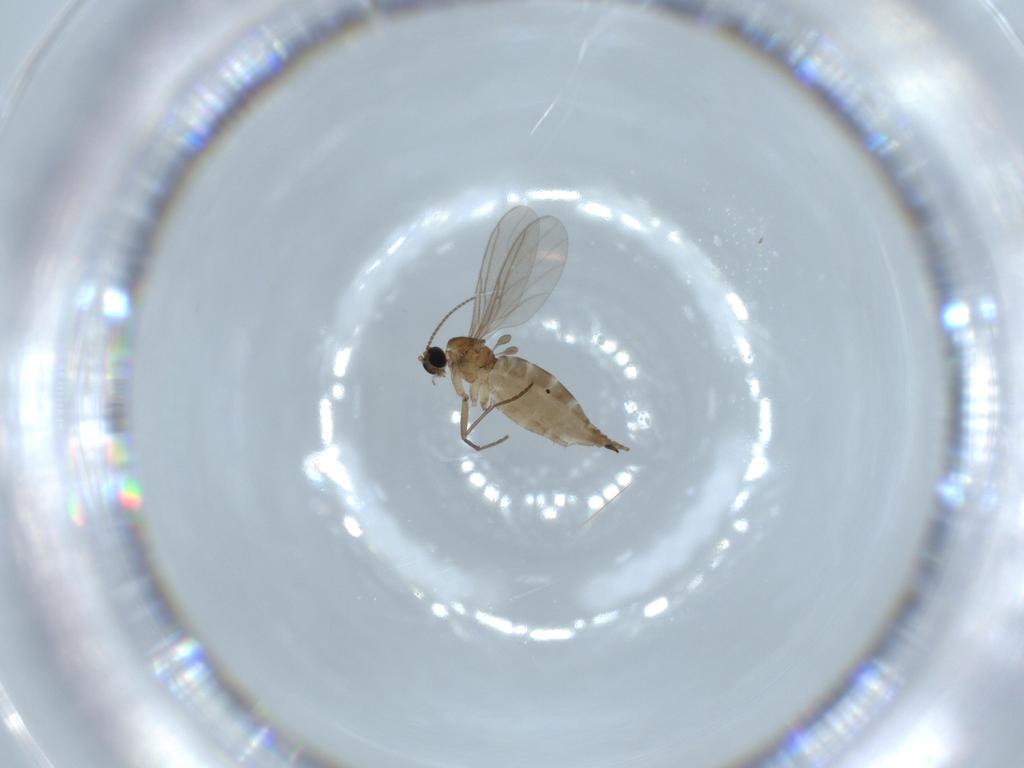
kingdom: Animalia
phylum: Arthropoda
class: Insecta
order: Diptera
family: Sciaridae
